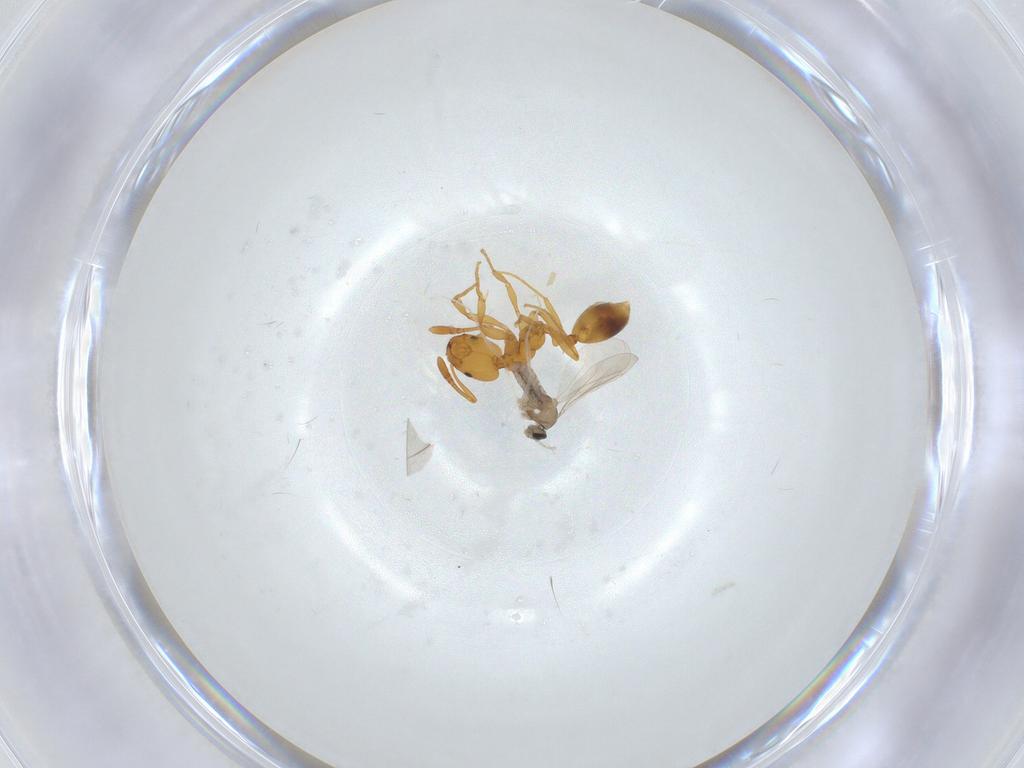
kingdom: Animalia
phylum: Arthropoda
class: Insecta
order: Hymenoptera
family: Formicidae
